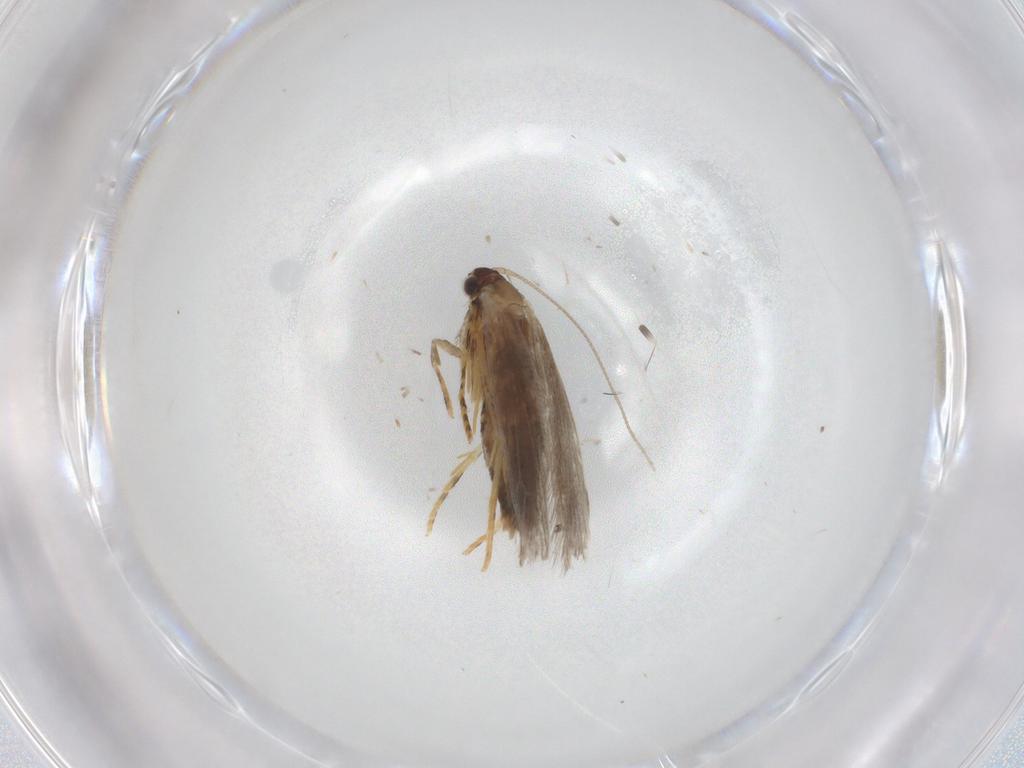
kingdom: Animalia
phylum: Arthropoda
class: Insecta
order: Lepidoptera
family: Tineidae
